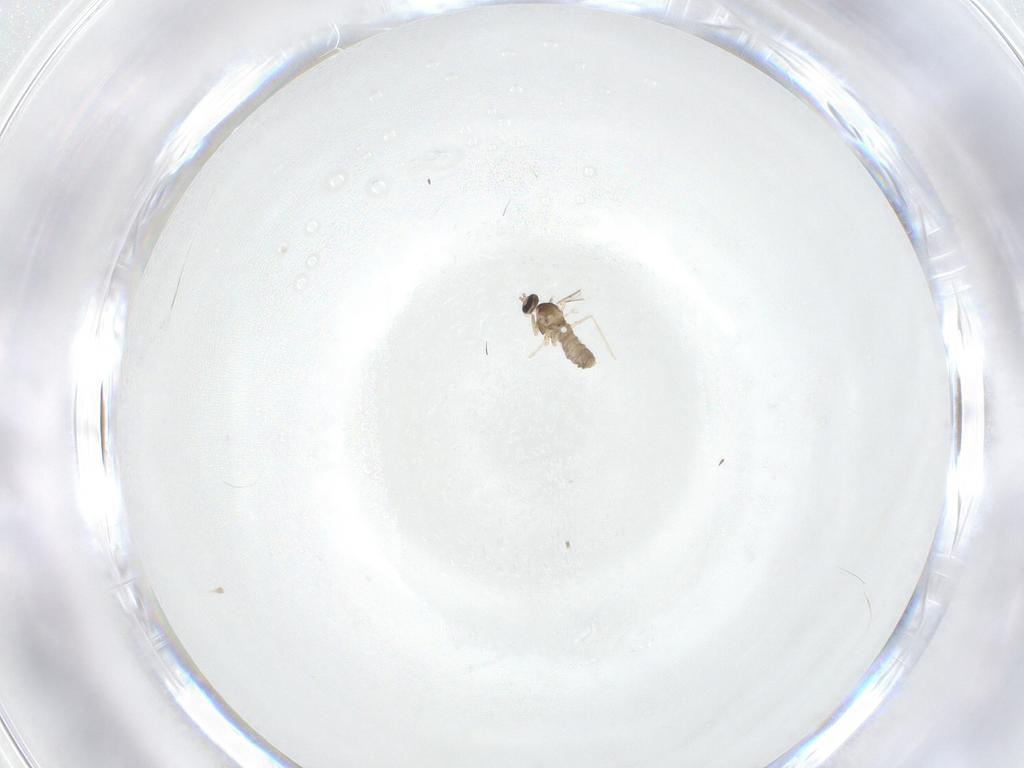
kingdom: Animalia
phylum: Arthropoda
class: Insecta
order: Diptera
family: Cecidomyiidae
